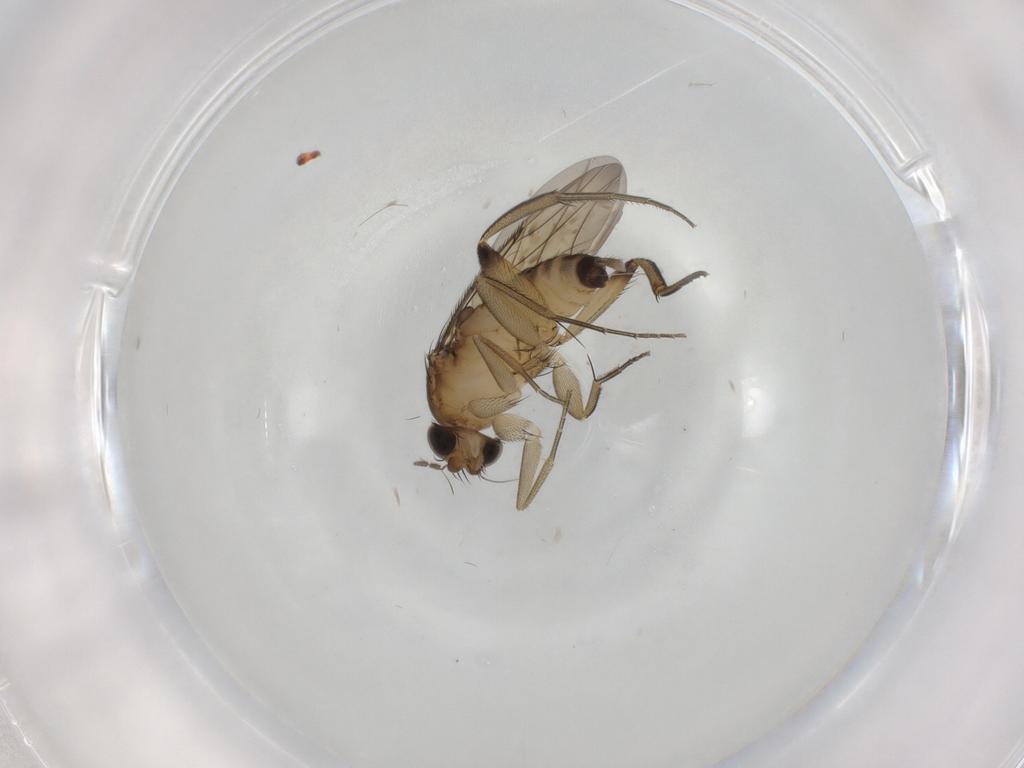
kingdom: Animalia
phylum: Arthropoda
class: Insecta
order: Diptera
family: Phoridae
